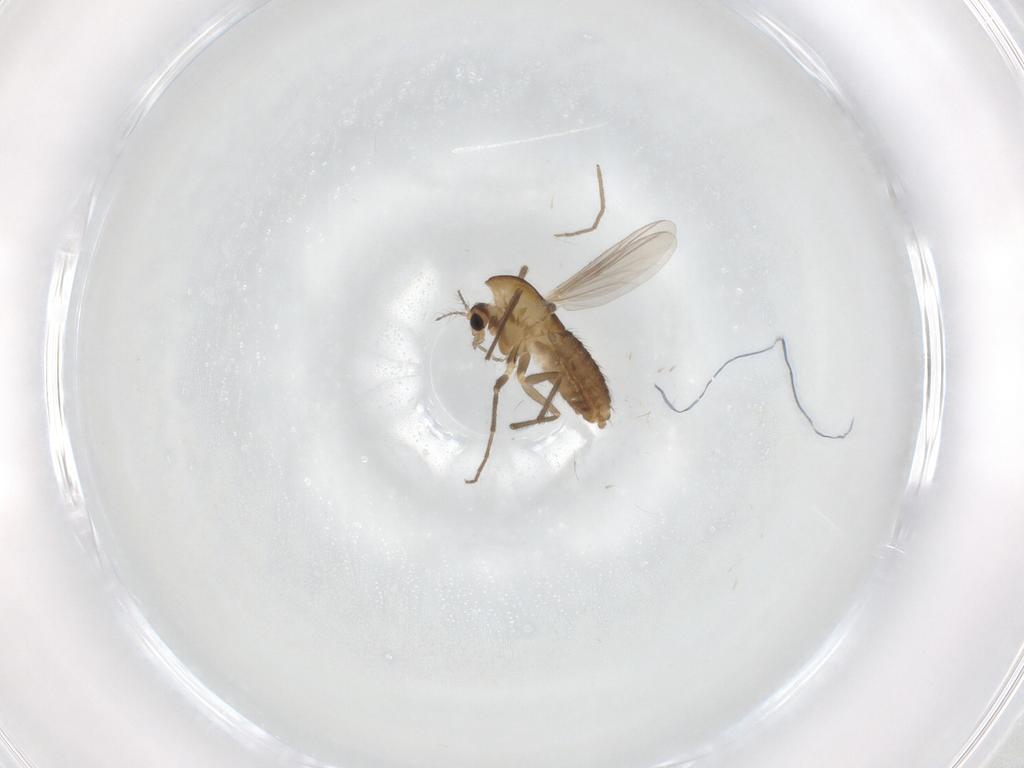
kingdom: Animalia
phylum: Arthropoda
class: Insecta
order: Diptera
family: Chironomidae
